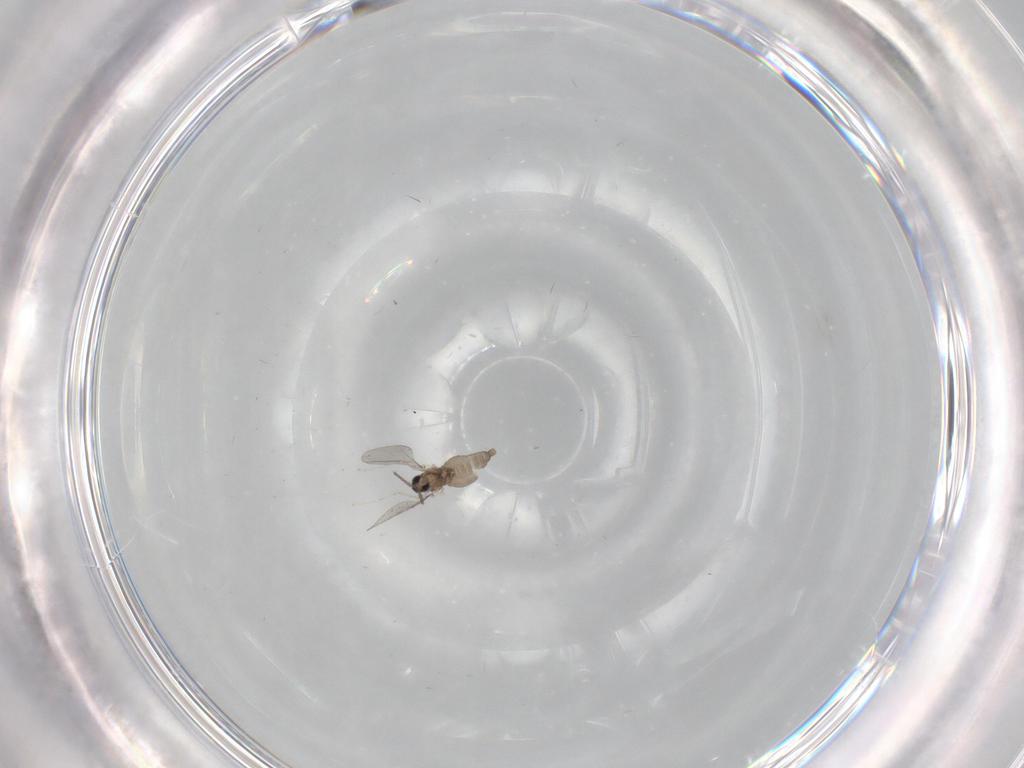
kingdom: Animalia
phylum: Arthropoda
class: Insecta
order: Diptera
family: Cecidomyiidae
